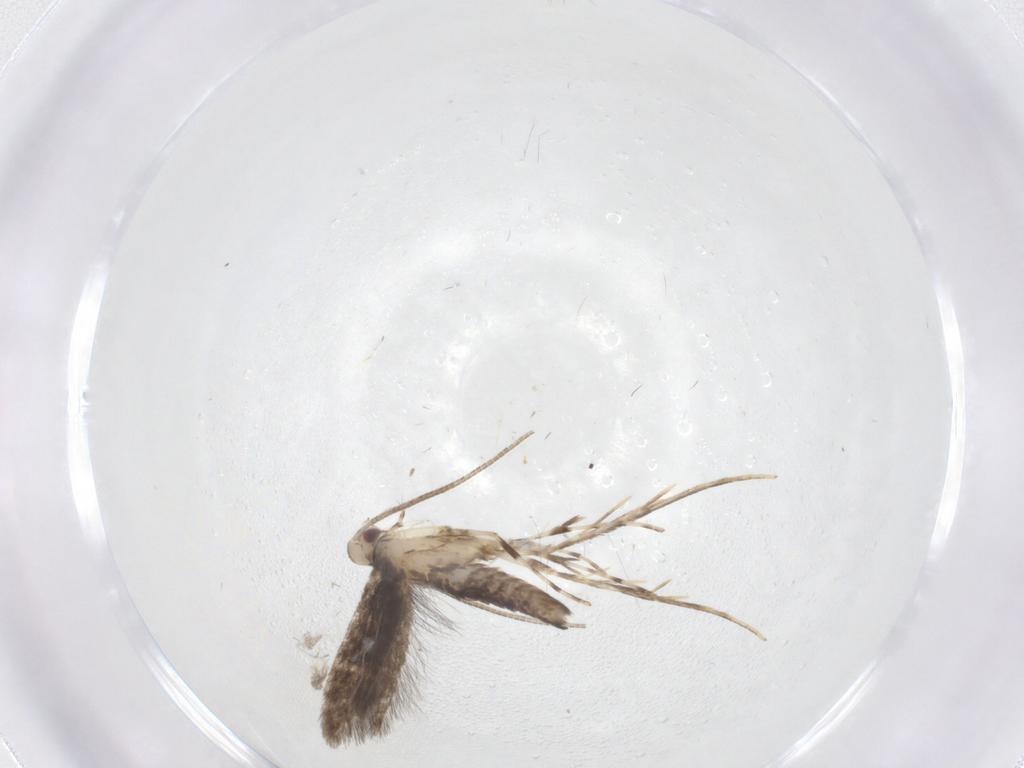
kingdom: Animalia
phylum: Arthropoda
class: Insecta
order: Lepidoptera
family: Gracillariidae
